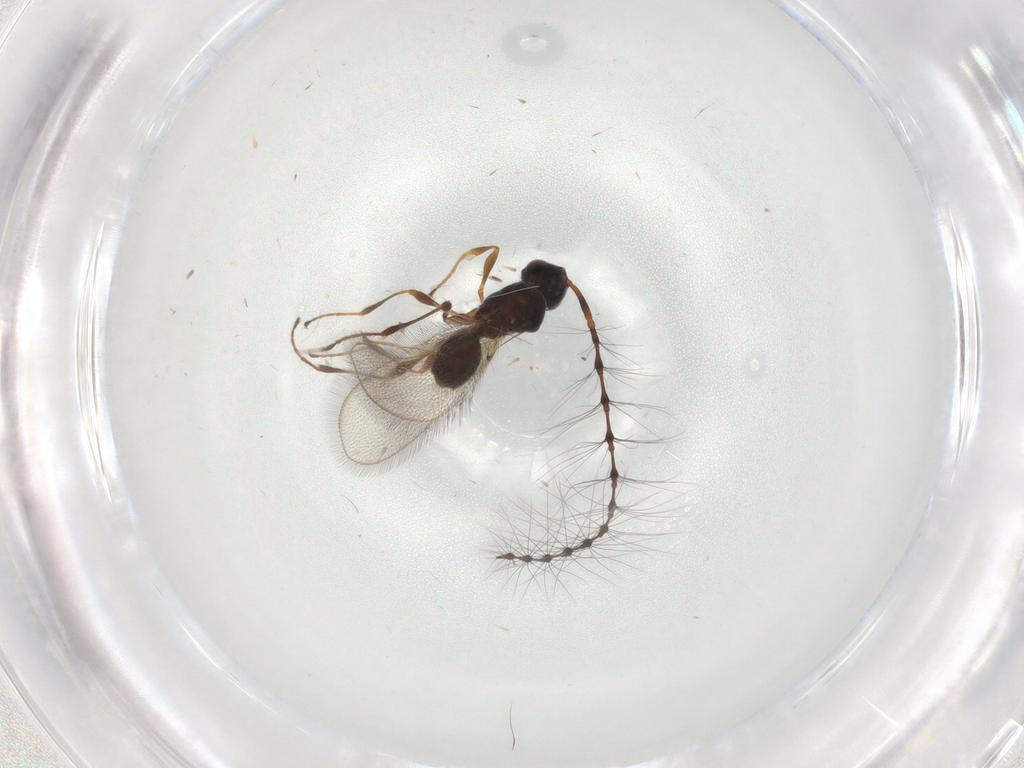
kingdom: Animalia
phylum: Arthropoda
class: Insecta
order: Hymenoptera
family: Diapriidae
